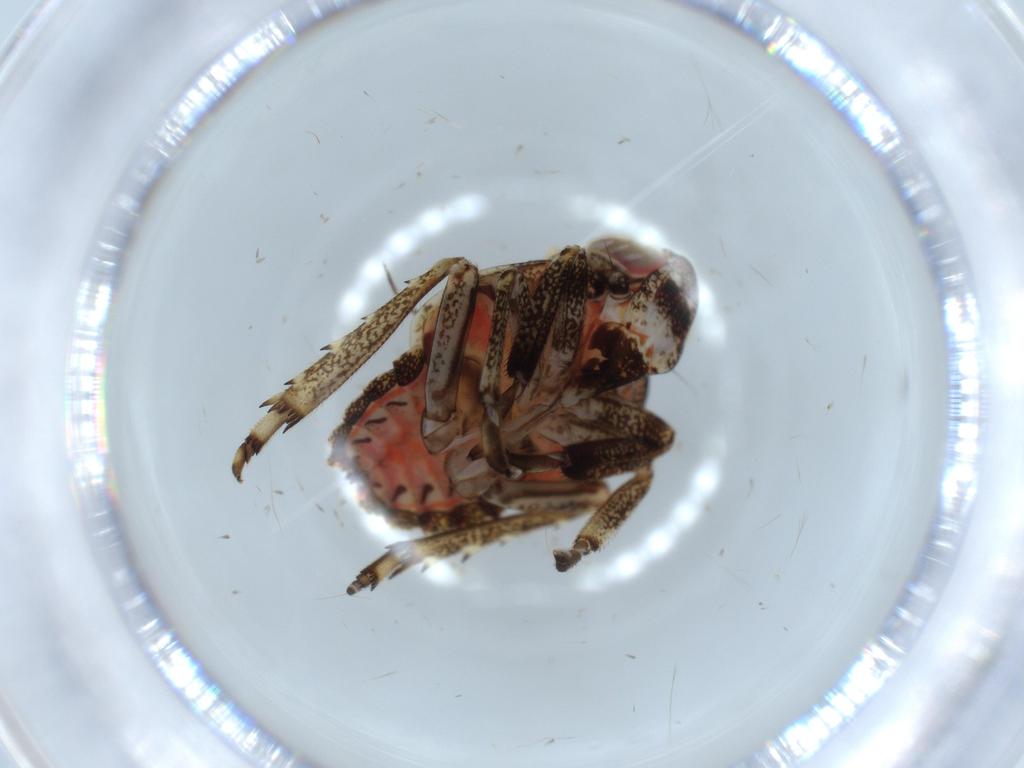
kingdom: Animalia
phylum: Arthropoda
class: Insecta
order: Hemiptera
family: Issidae
